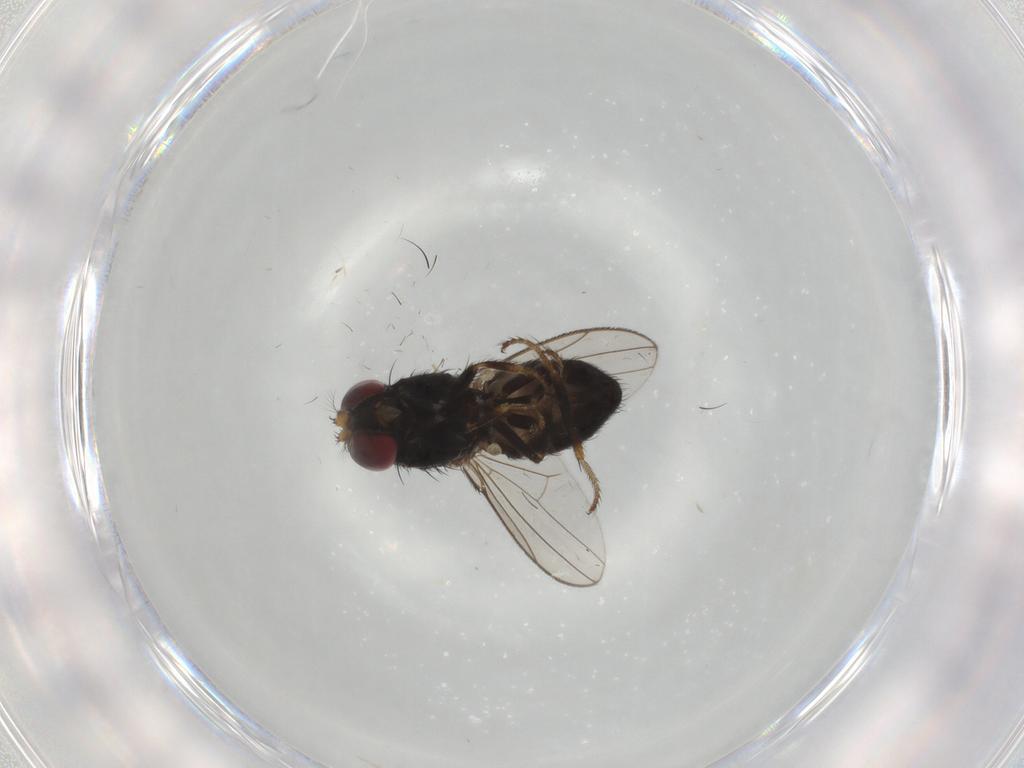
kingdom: Animalia
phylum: Arthropoda
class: Insecta
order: Diptera
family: Ephydridae
